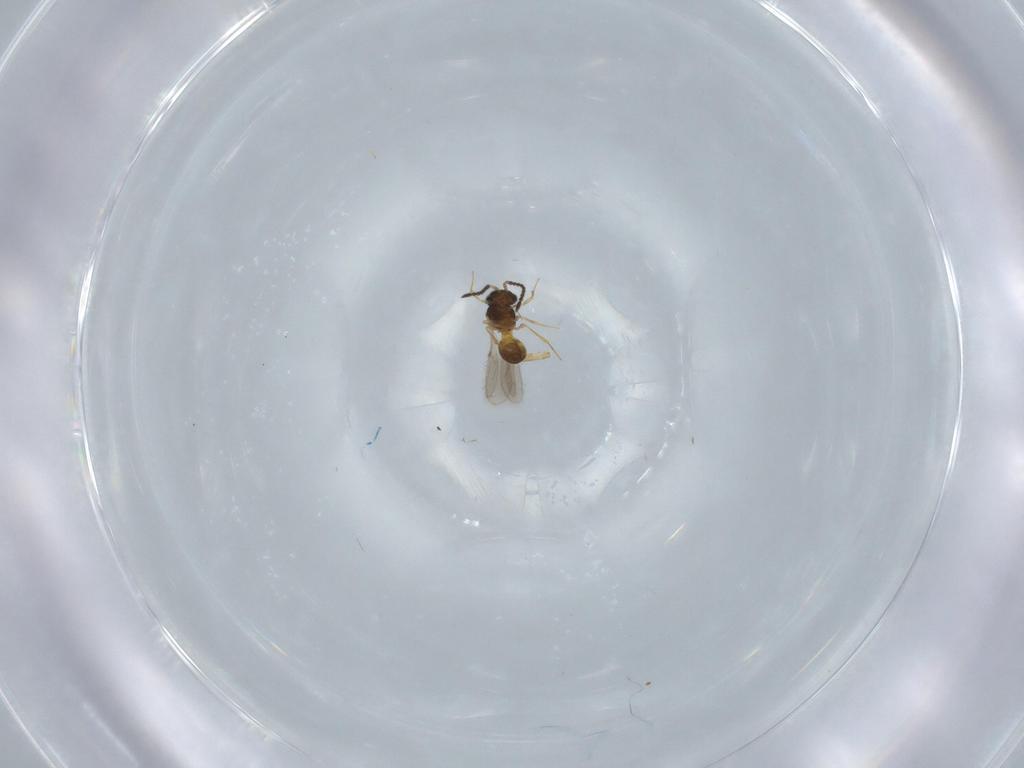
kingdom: Animalia
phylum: Arthropoda
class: Insecta
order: Hymenoptera
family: Scelionidae
